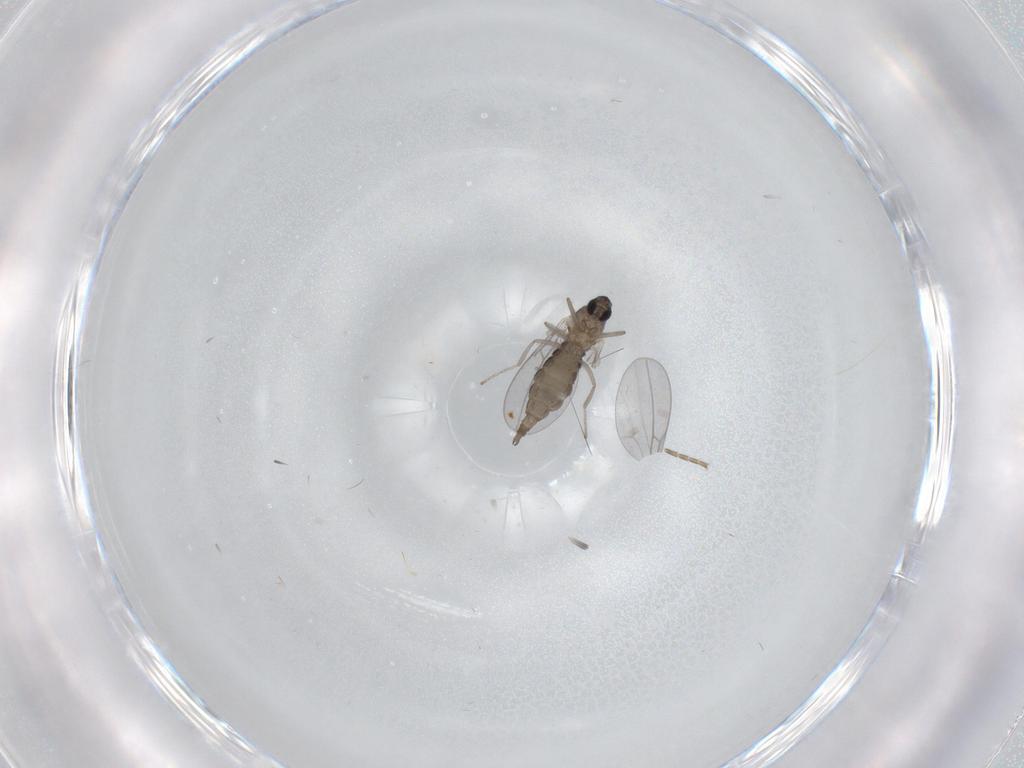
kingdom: Animalia
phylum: Arthropoda
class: Insecta
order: Diptera
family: Cecidomyiidae
